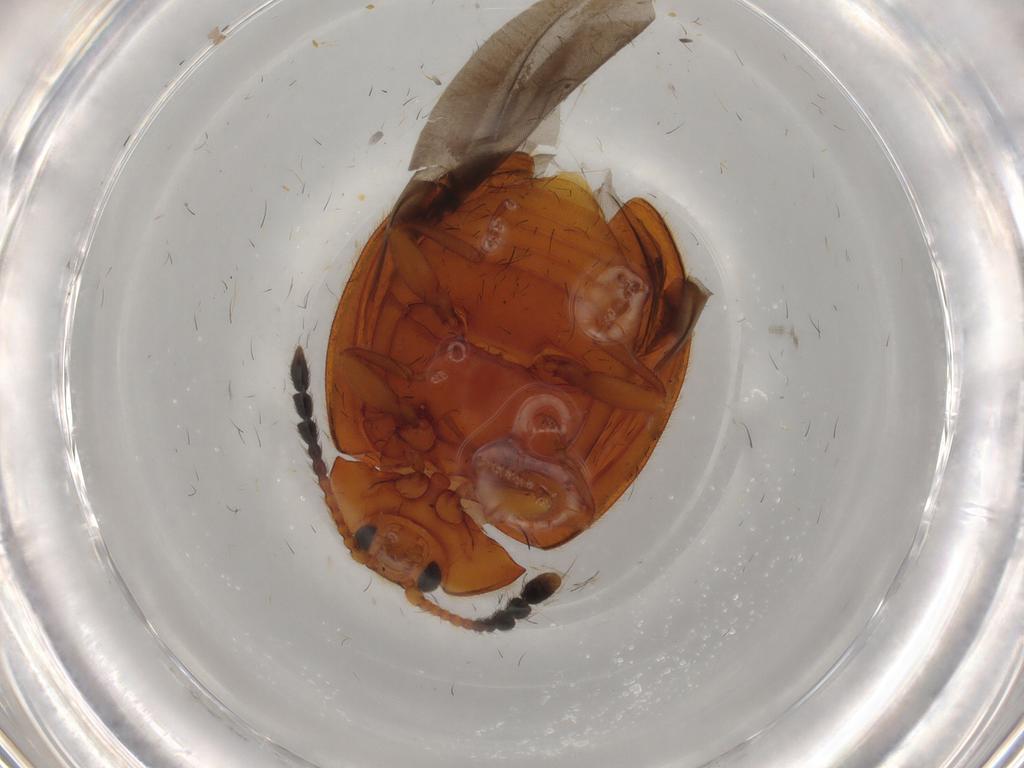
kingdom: Animalia
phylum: Arthropoda
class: Insecta
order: Coleoptera
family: Endomychidae
